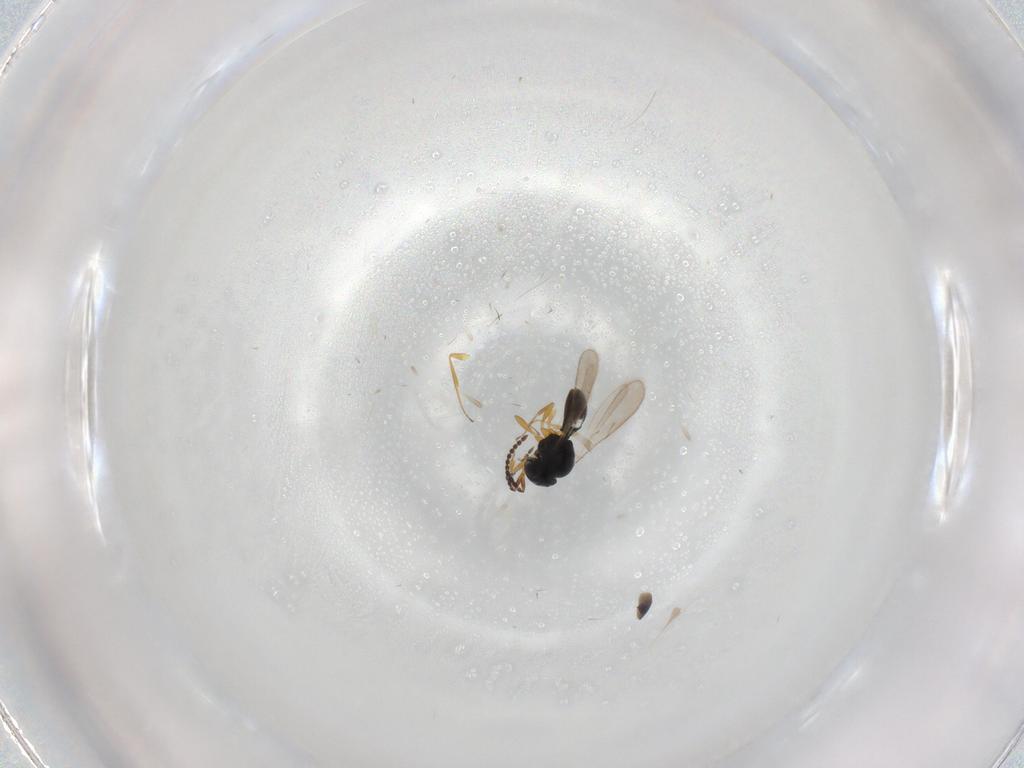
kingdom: Animalia
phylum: Arthropoda
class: Insecta
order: Hymenoptera
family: Scelionidae
